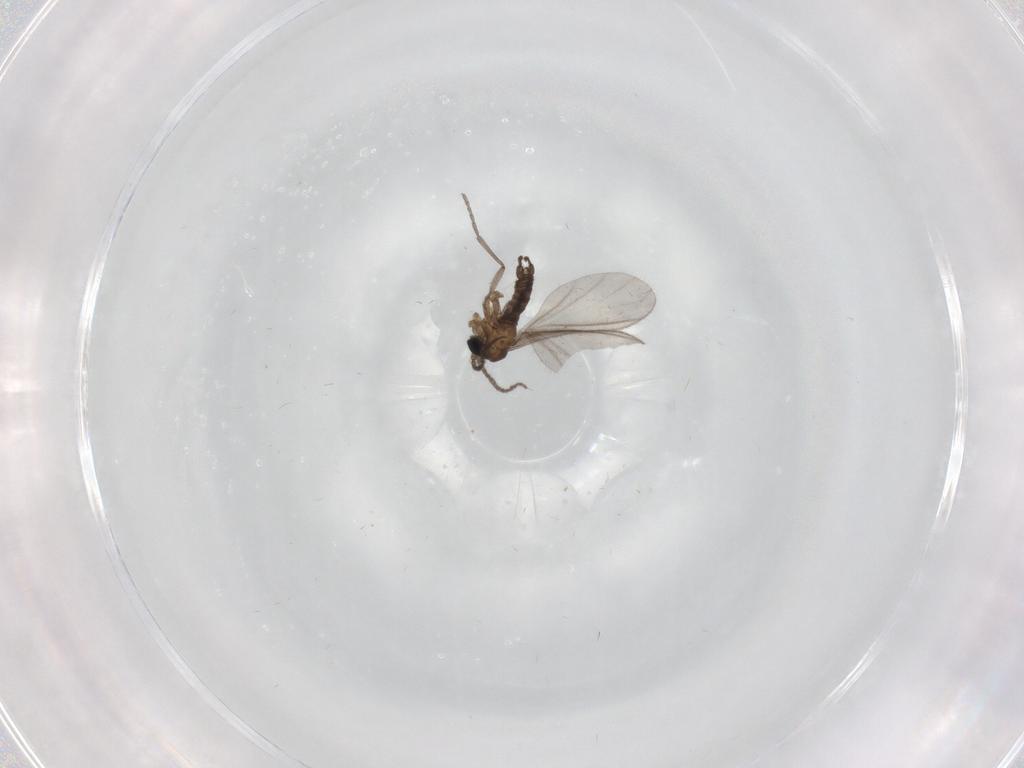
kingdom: Animalia
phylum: Arthropoda
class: Insecta
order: Diptera
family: Sciaridae
